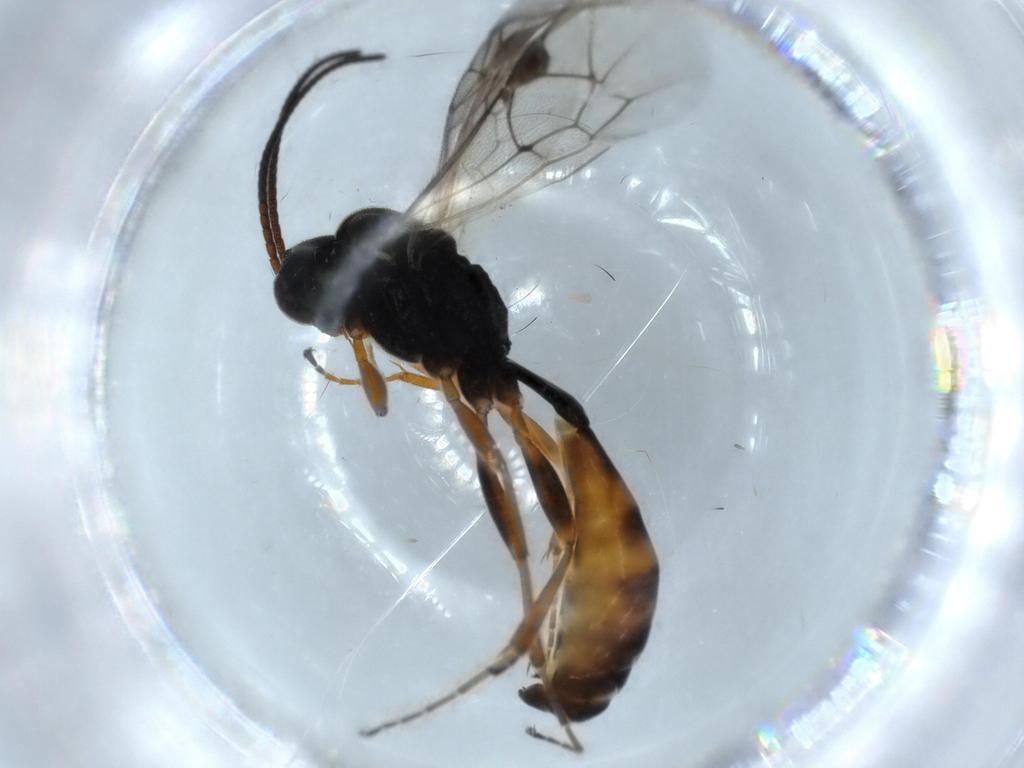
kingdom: Animalia
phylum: Arthropoda
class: Insecta
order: Hymenoptera
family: Ichneumonidae
